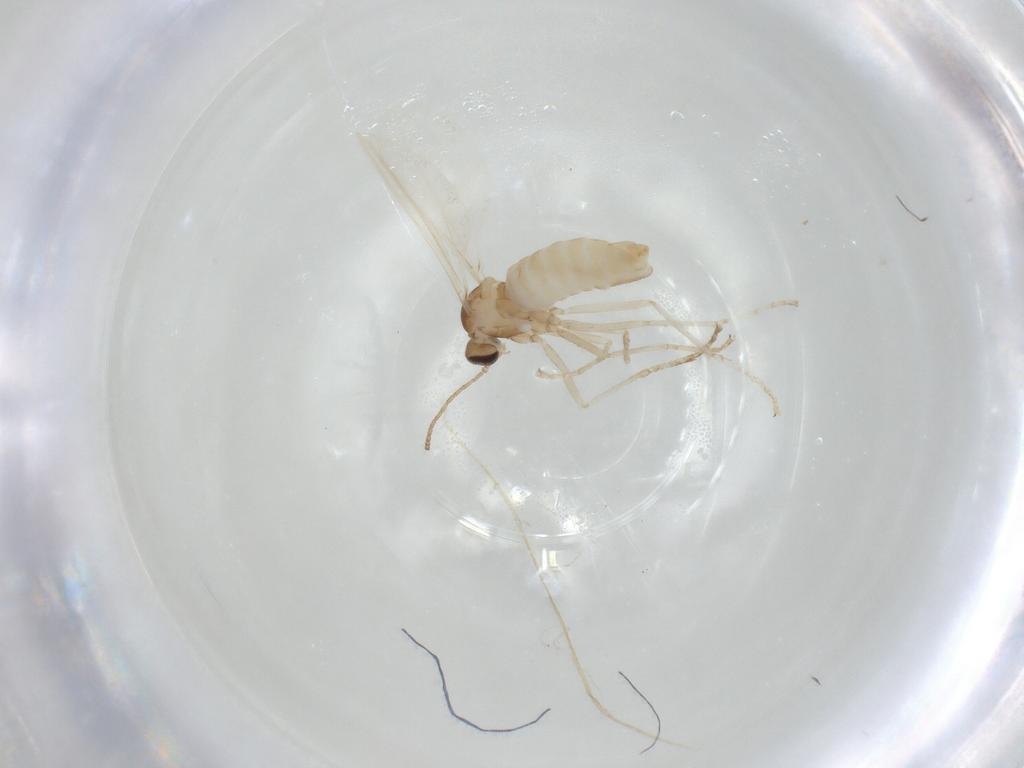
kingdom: Animalia
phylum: Arthropoda
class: Insecta
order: Diptera
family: Cecidomyiidae
